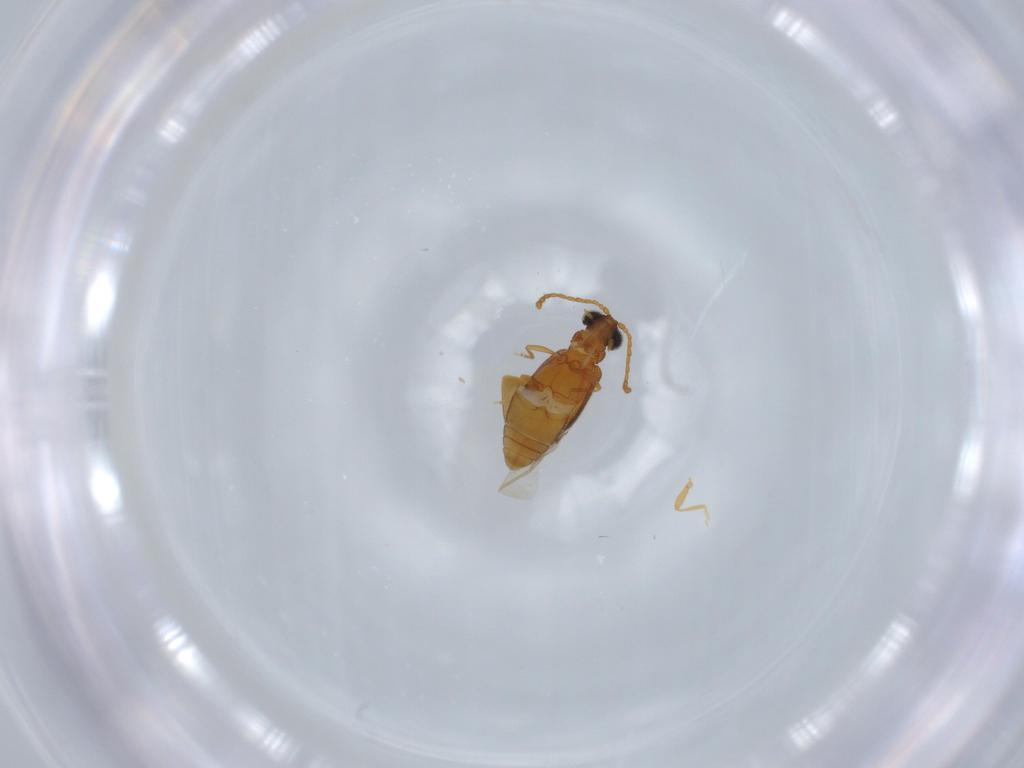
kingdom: Animalia
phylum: Arthropoda
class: Insecta
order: Coleoptera
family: Aderidae
